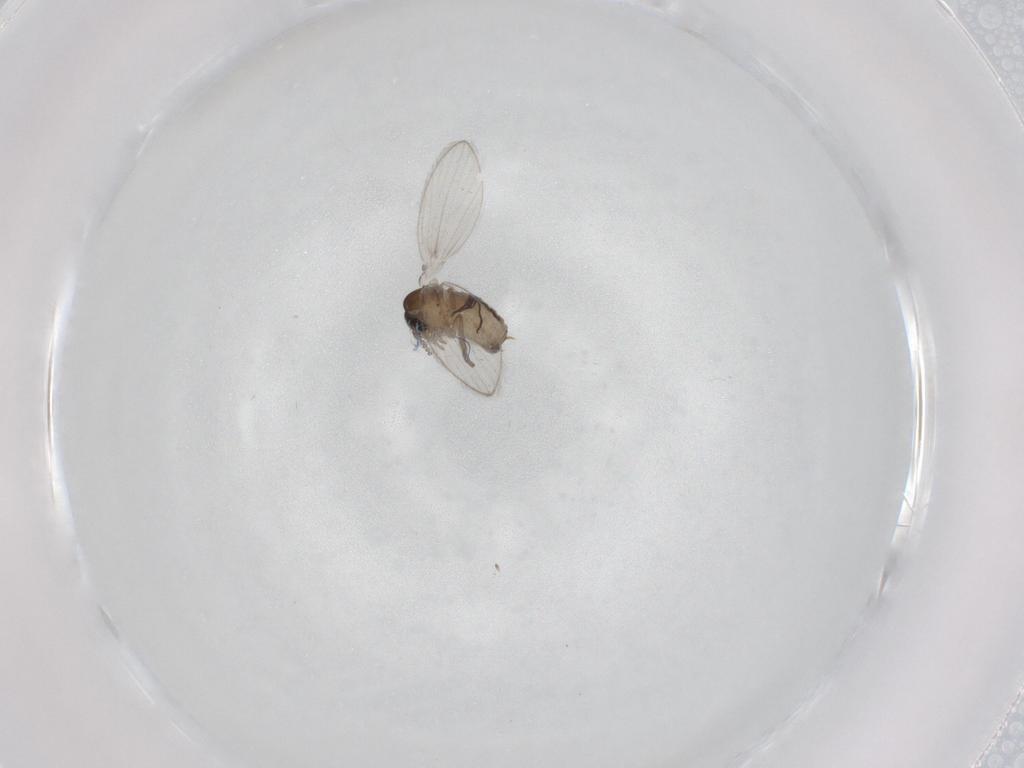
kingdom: Animalia
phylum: Arthropoda
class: Insecta
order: Diptera
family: Psychodidae
